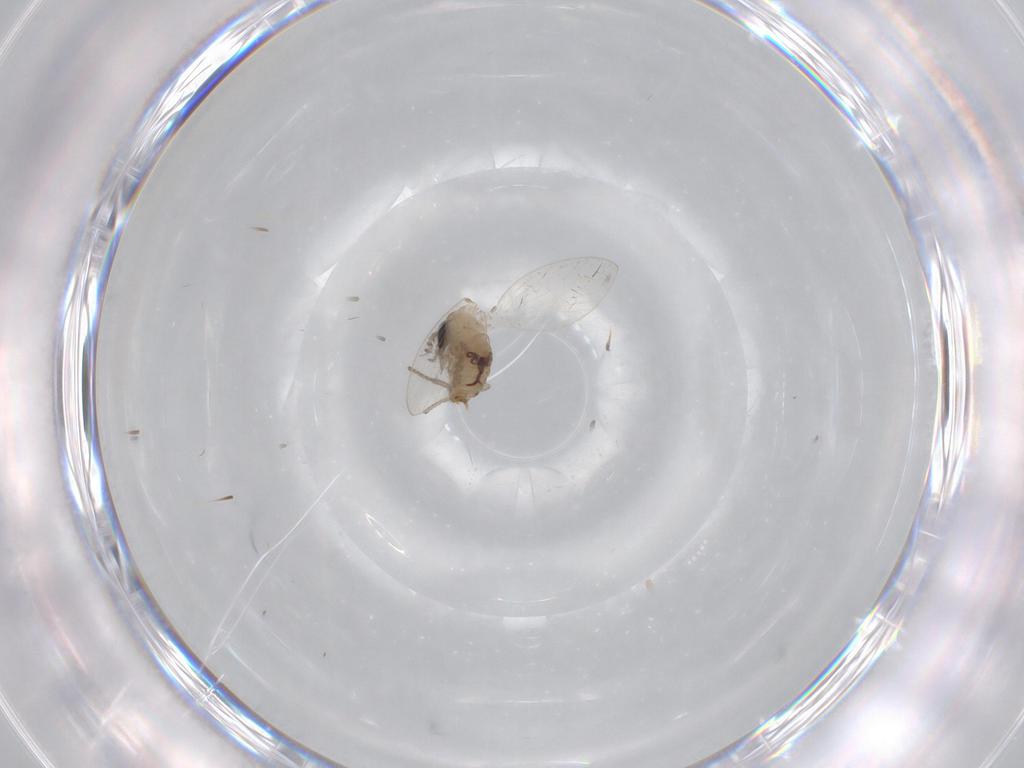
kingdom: Animalia
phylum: Arthropoda
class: Insecta
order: Diptera
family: Psychodidae
